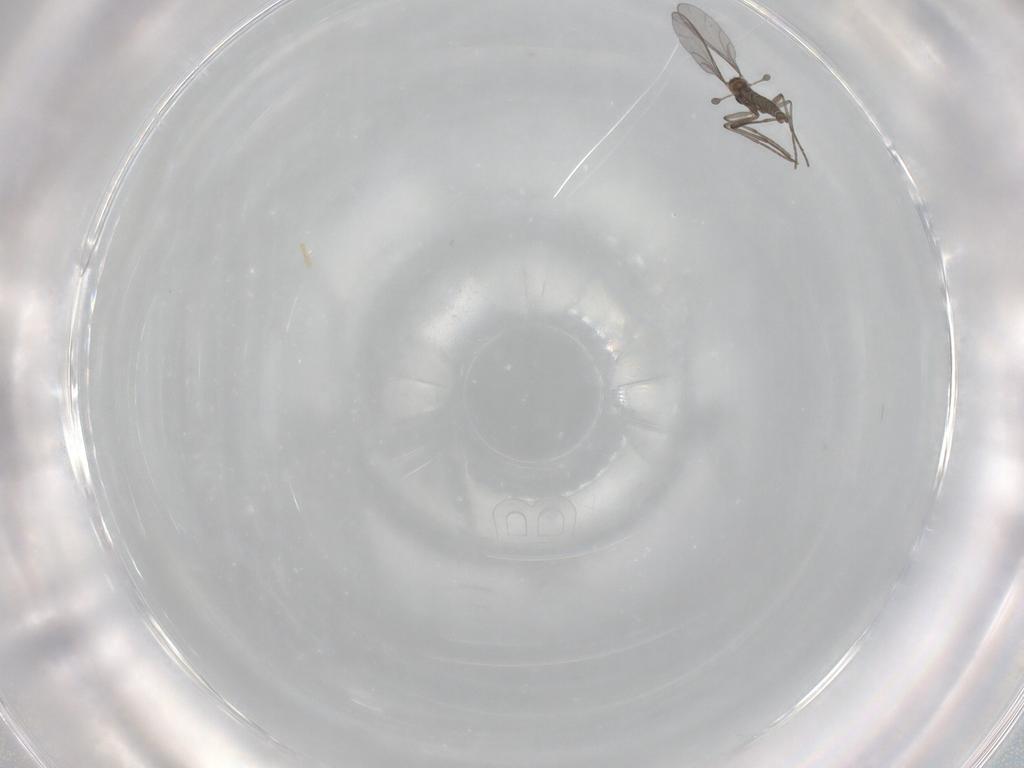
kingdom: Animalia
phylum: Arthropoda
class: Insecta
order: Diptera
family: Sciaridae
